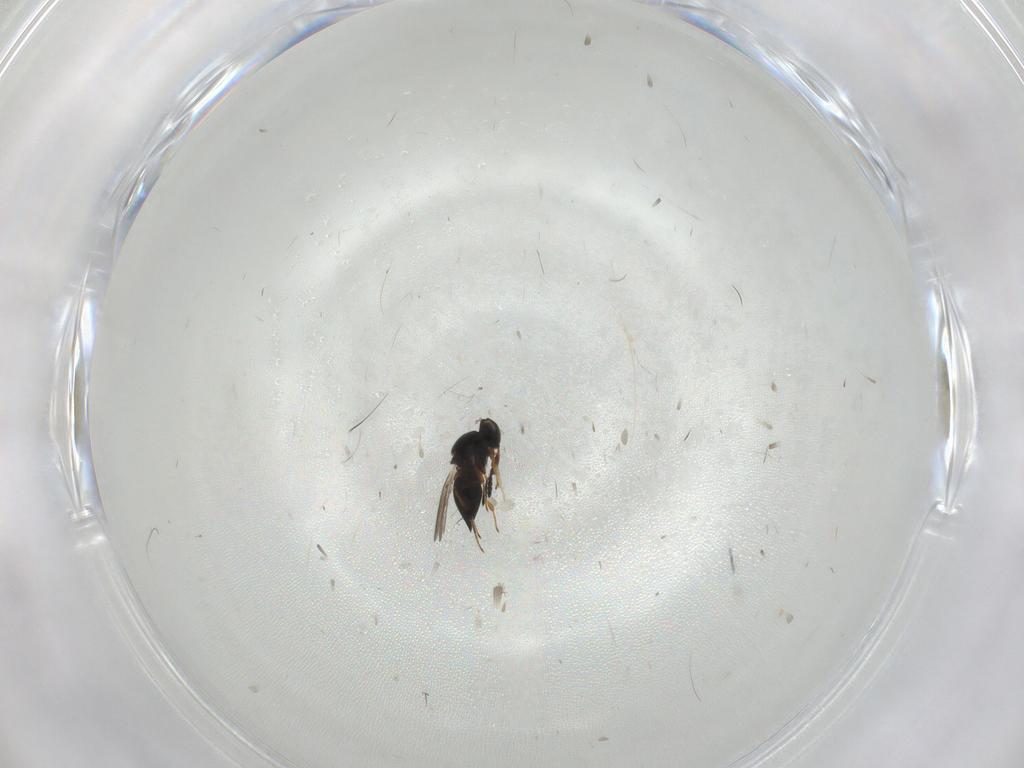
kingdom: Animalia
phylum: Arthropoda
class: Insecta
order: Hymenoptera
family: Platygastridae
